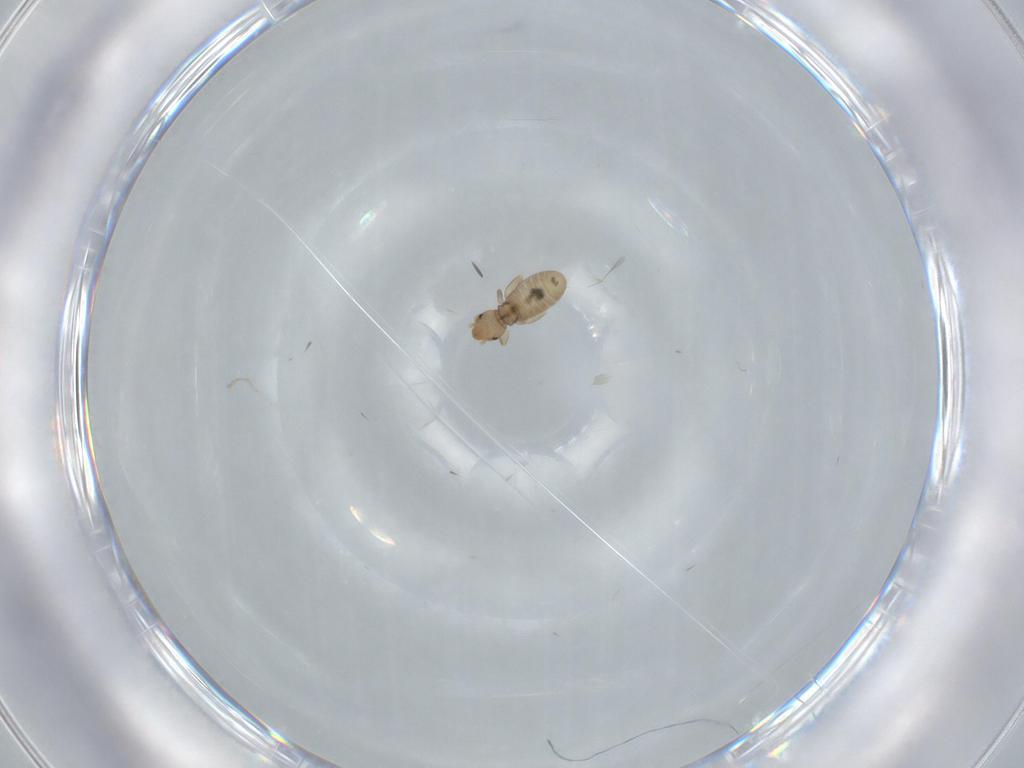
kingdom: Animalia
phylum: Arthropoda
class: Insecta
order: Psocodea
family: Liposcelididae
